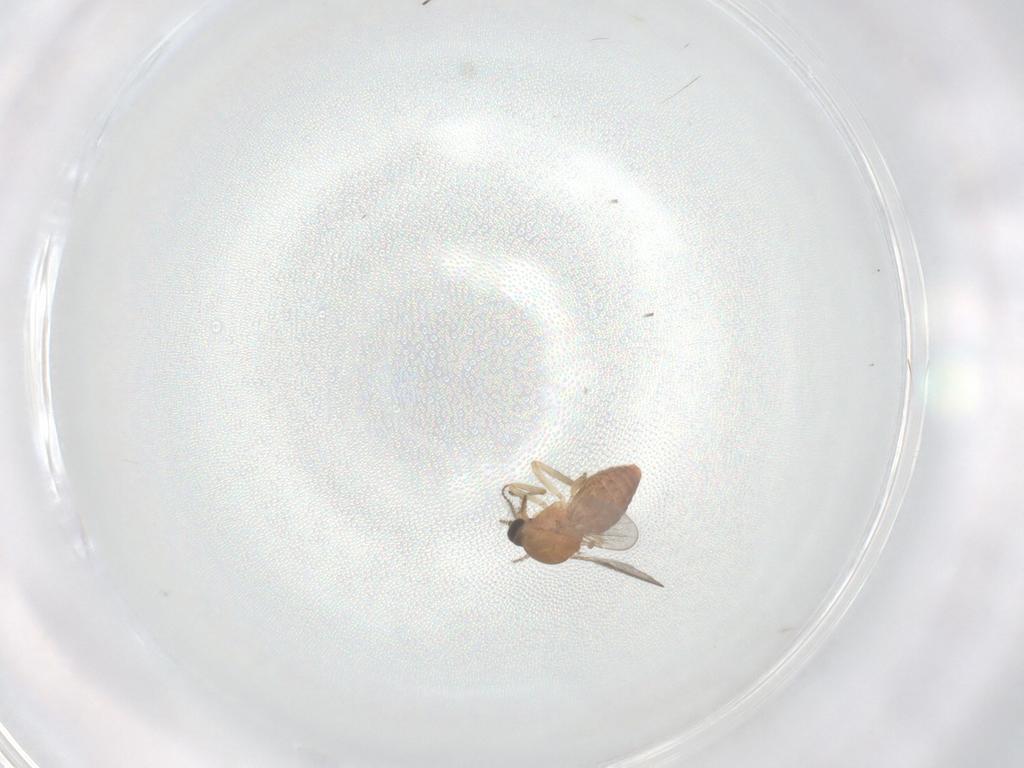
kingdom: Animalia
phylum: Arthropoda
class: Insecta
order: Diptera
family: Ceratopogonidae
